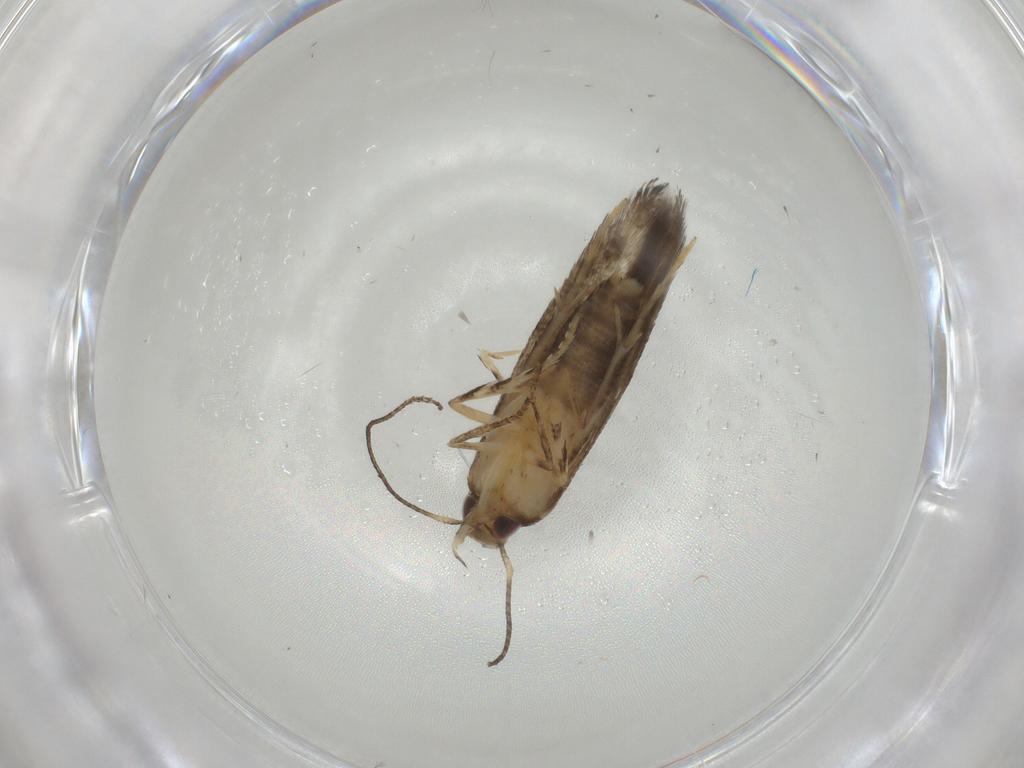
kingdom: Animalia
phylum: Arthropoda
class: Insecta
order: Lepidoptera
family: Elachistidae
